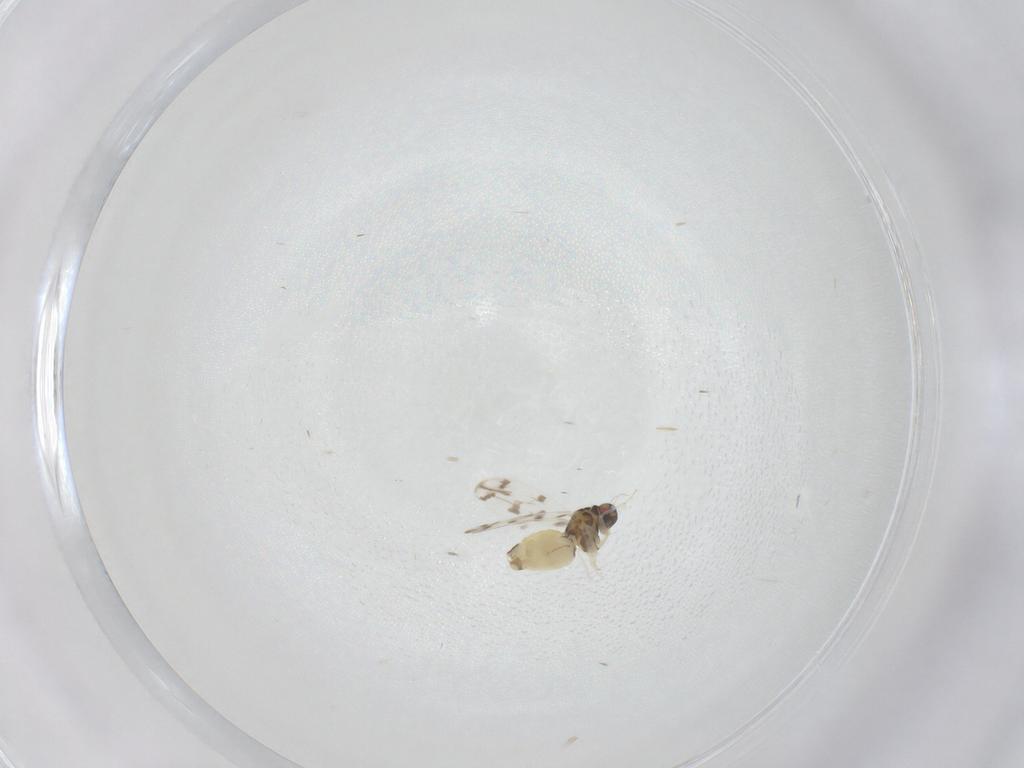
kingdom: Animalia
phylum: Arthropoda
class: Insecta
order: Hemiptera
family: Aleyrodidae
